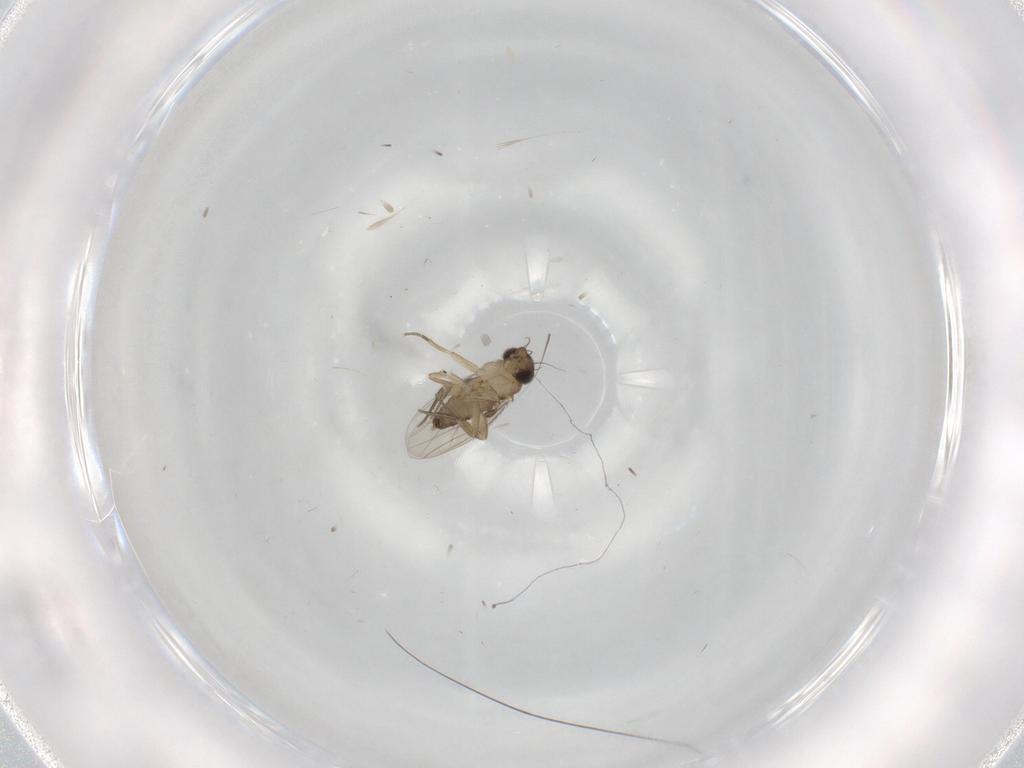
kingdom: Animalia
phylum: Arthropoda
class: Insecta
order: Diptera
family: Phoridae
